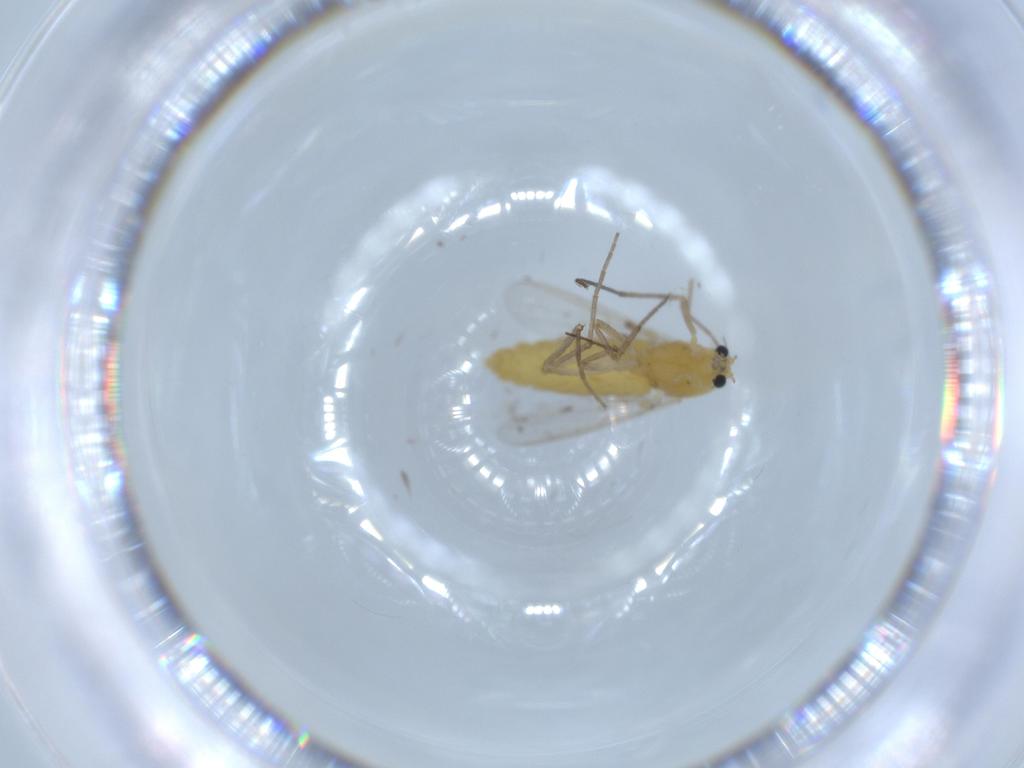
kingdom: Animalia
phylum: Arthropoda
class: Insecta
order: Diptera
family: Chironomidae
